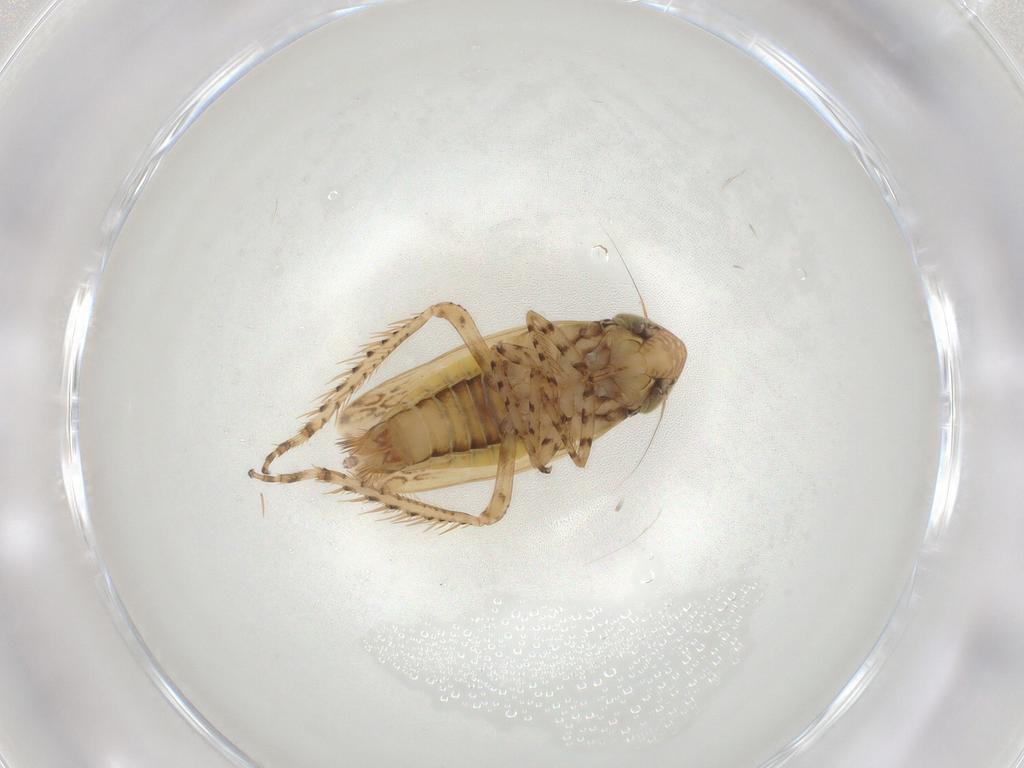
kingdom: Animalia
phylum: Arthropoda
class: Insecta
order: Hemiptera
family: Cicadellidae
